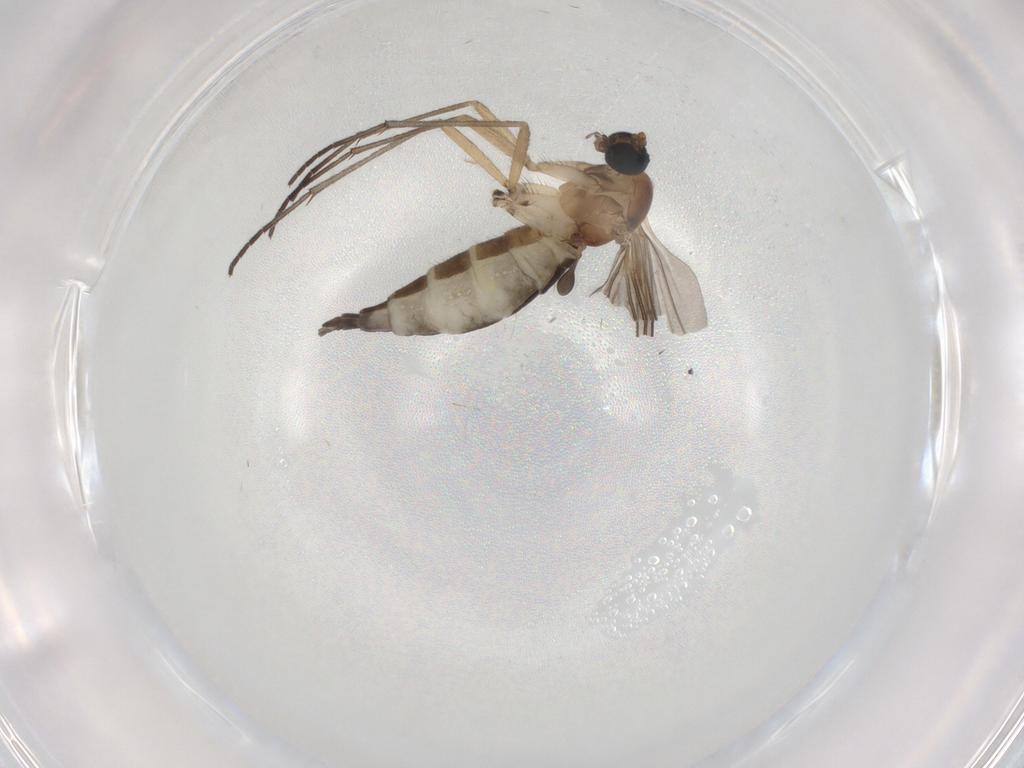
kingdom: Animalia
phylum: Arthropoda
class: Insecta
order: Diptera
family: Sciaridae
